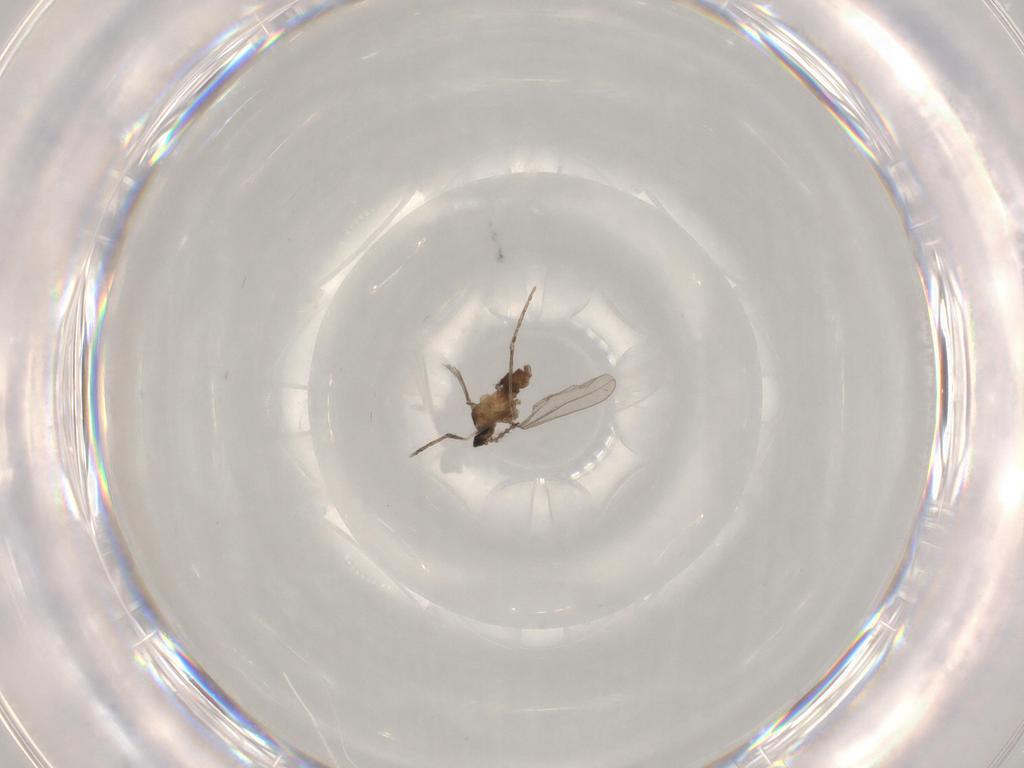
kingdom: Animalia
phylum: Arthropoda
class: Insecta
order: Diptera
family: Cecidomyiidae
